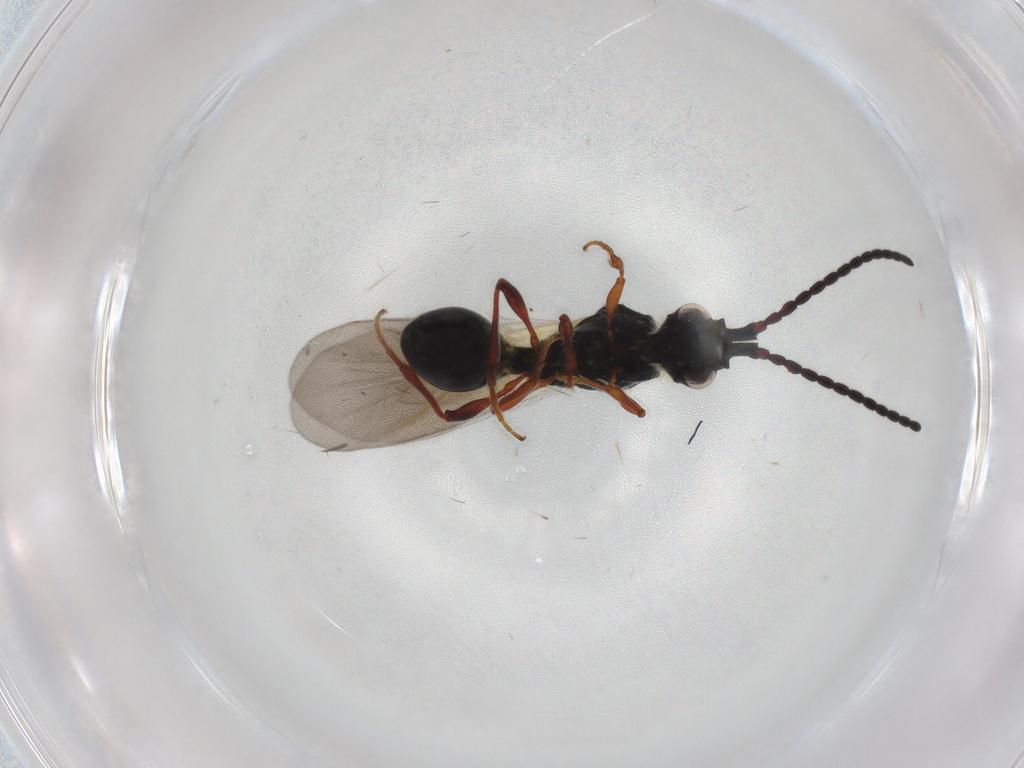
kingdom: Animalia
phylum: Arthropoda
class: Insecta
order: Hymenoptera
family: Diapriidae
